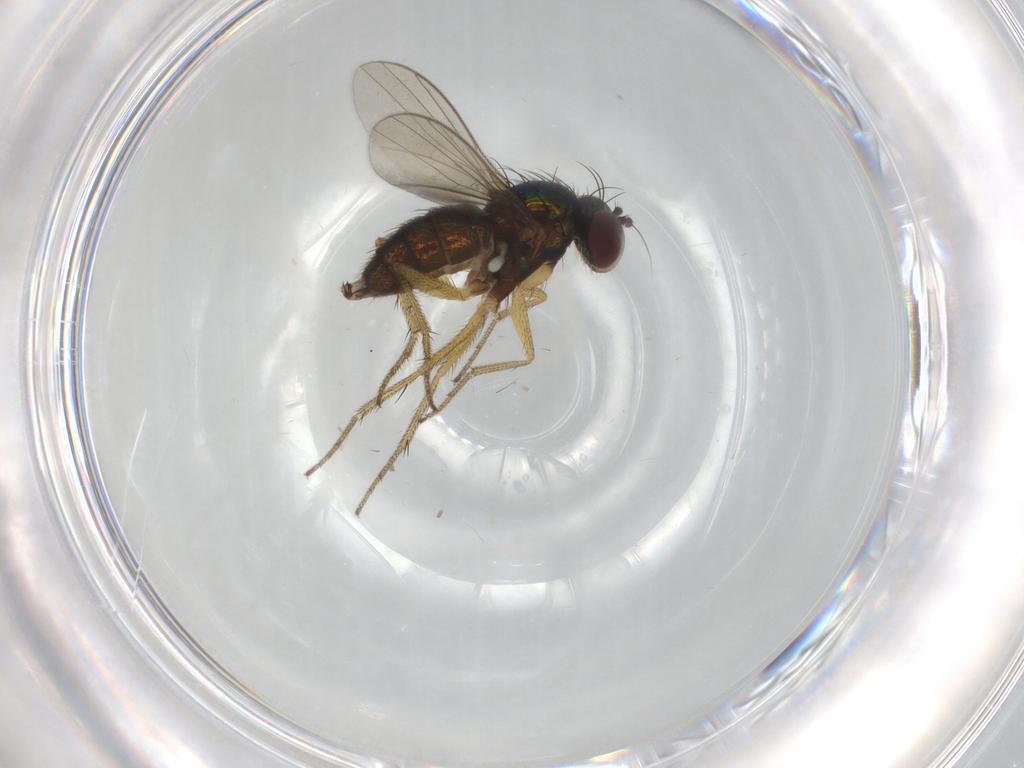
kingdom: Animalia
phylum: Arthropoda
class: Insecta
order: Diptera
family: Dolichopodidae
